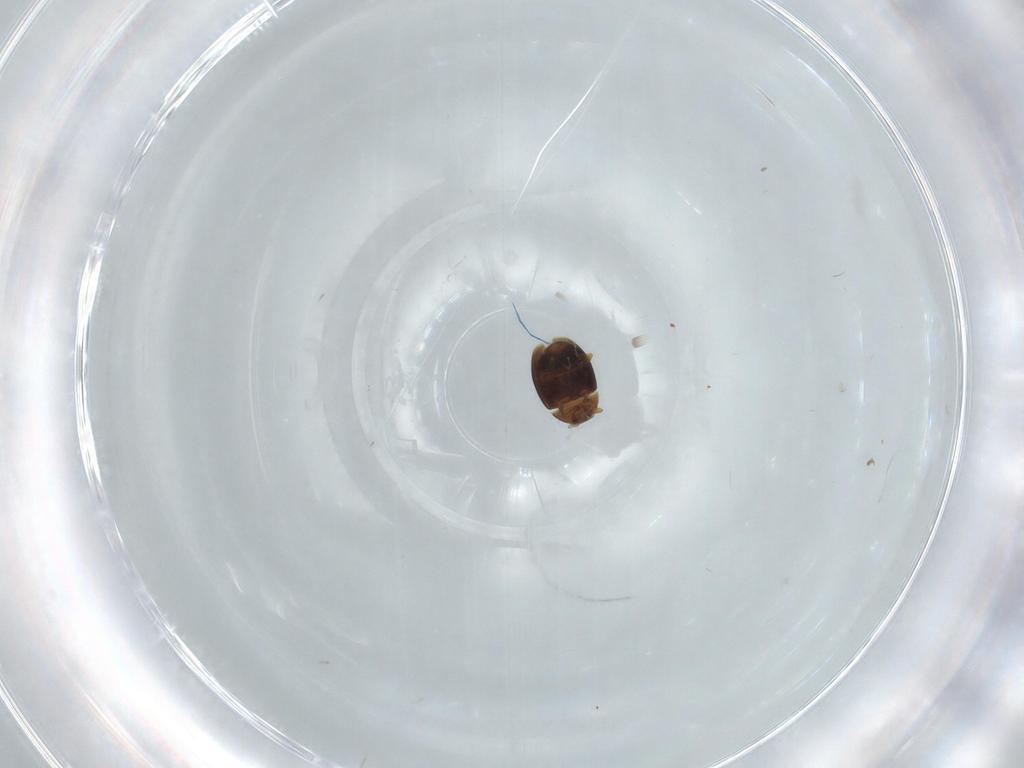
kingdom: Animalia
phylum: Arthropoda
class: Insecta
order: Coleoptera
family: Corylophidae
